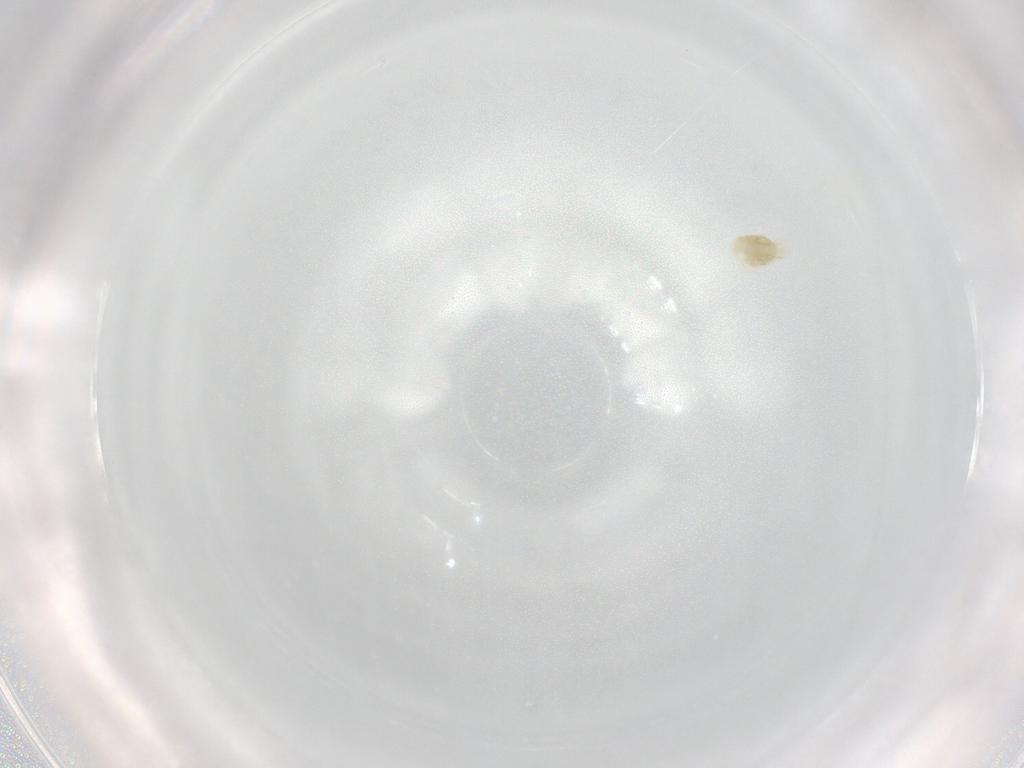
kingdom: Animalia
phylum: Arthropoda
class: Arachnida
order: Trombidiformes
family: Eupodidae
